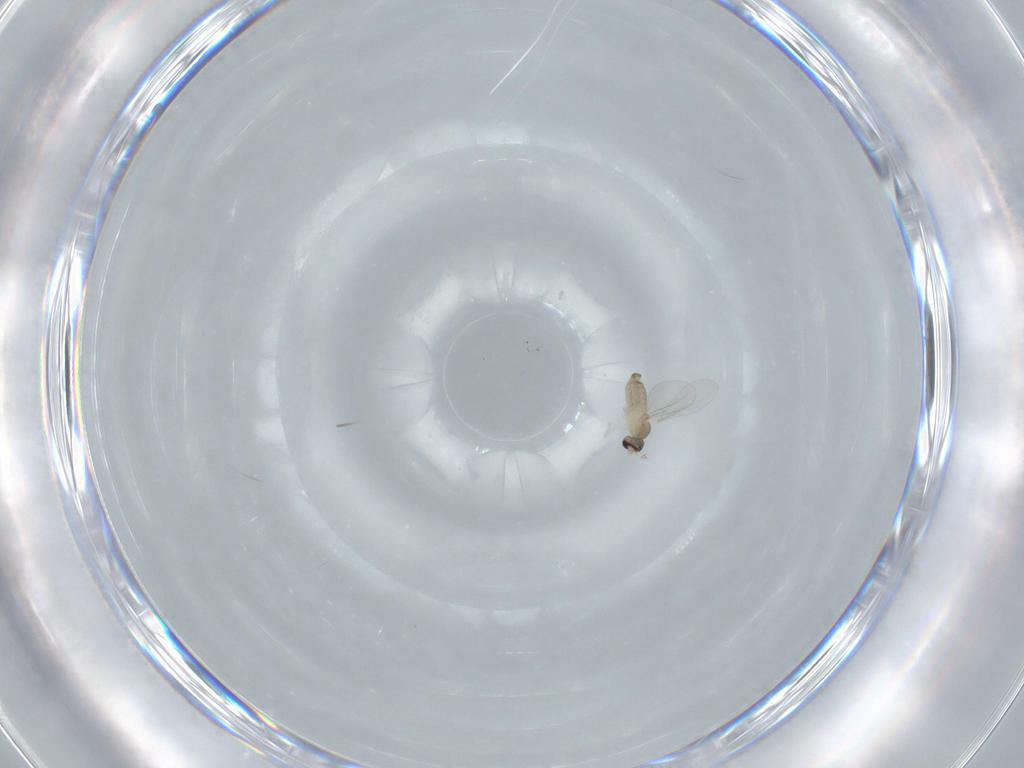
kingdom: Animalia
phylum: Arthropoda
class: Insecta
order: Diptera
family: Cecidomyiidae
